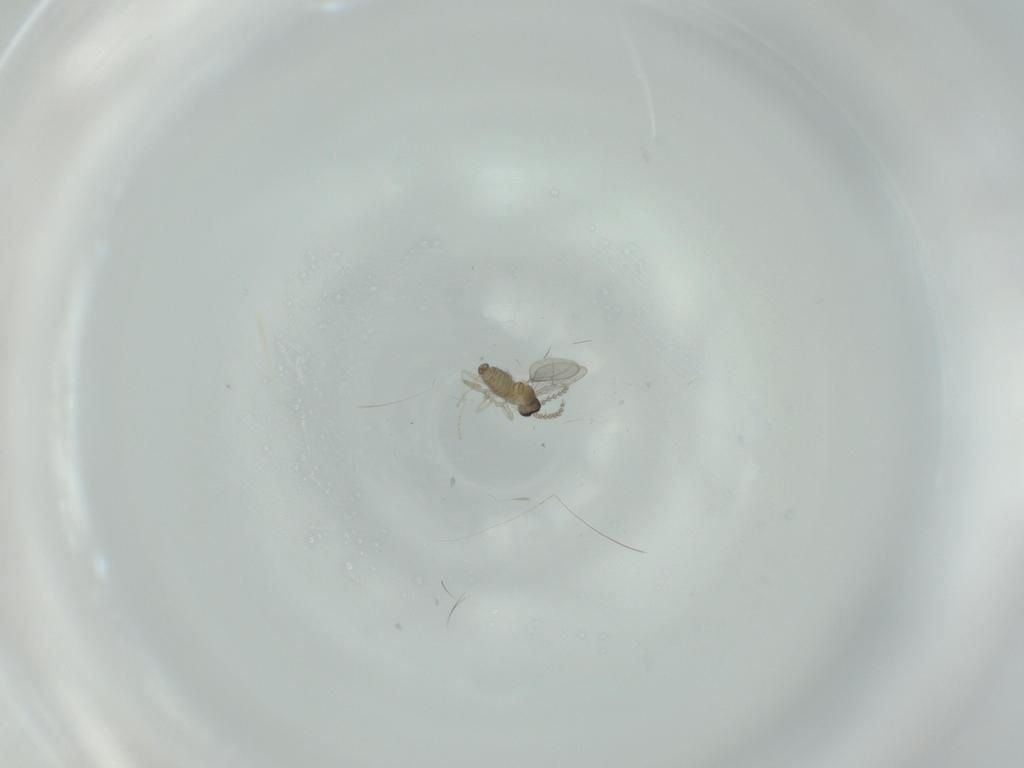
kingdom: Animalia
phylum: Arthropoda
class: Insecta
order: Diptera
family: Cecidomyiidae
